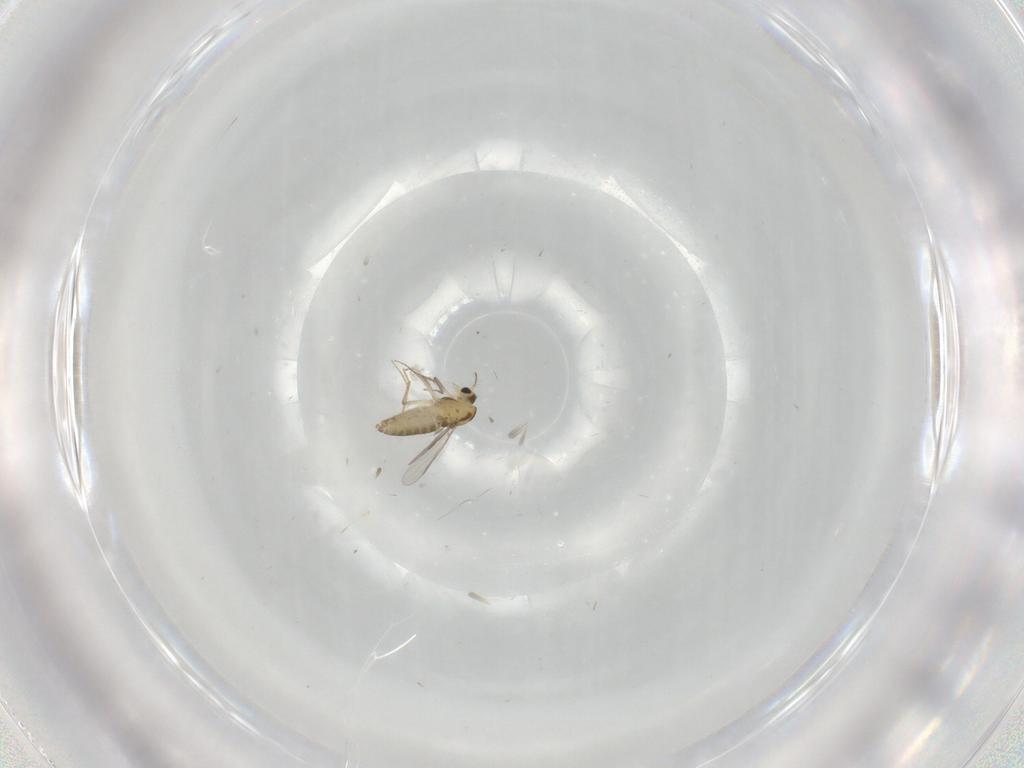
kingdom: Animalia
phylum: Arthropoda
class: Insecta
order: Diptera
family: Chironomidae
